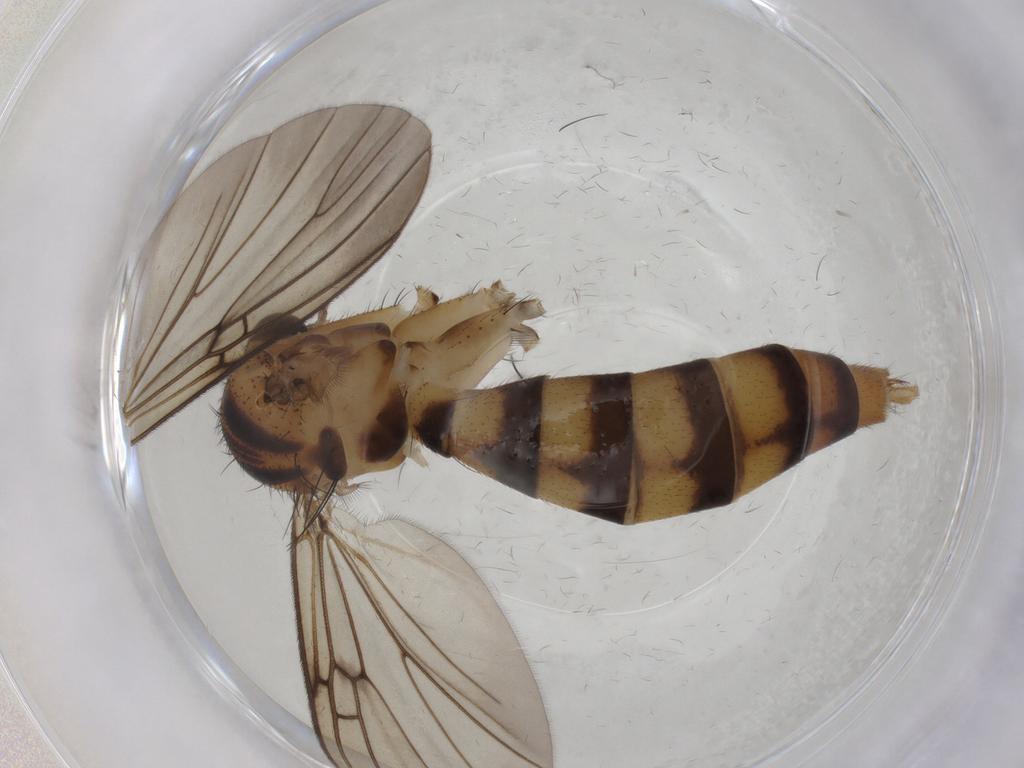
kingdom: Animalia
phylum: Arthropoda
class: Insecta
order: Diptera
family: Mycetophilidae
